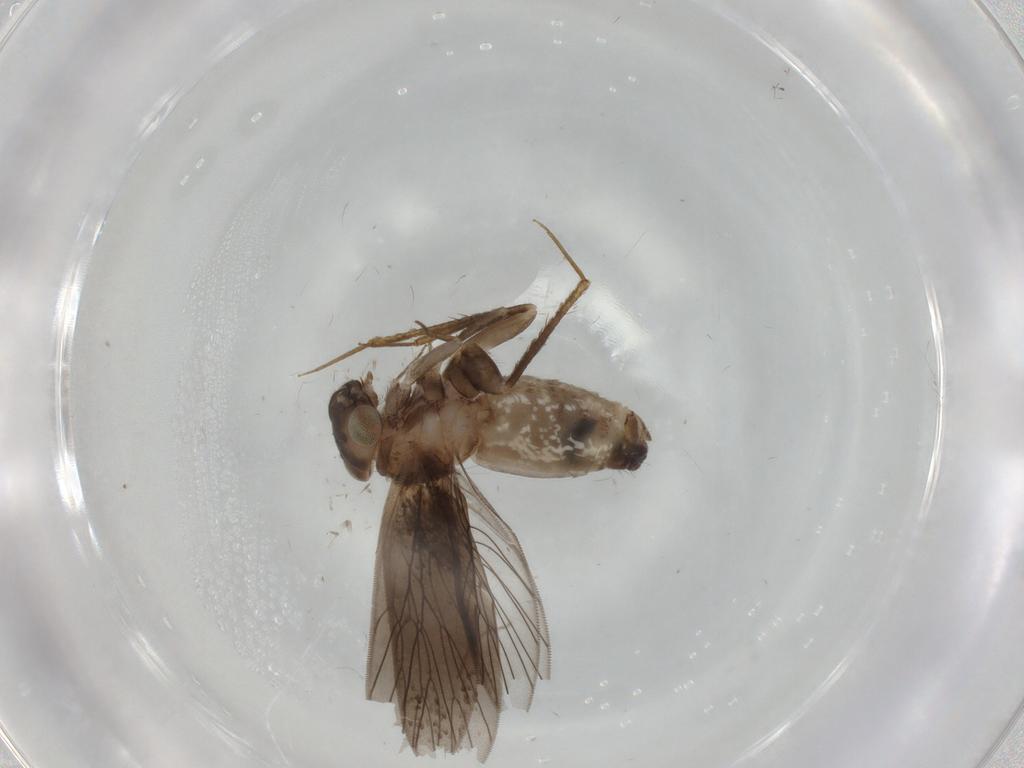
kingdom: Animalia
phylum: Arthropoda
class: Insecta
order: Psocodea
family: Lepidopsocidae
